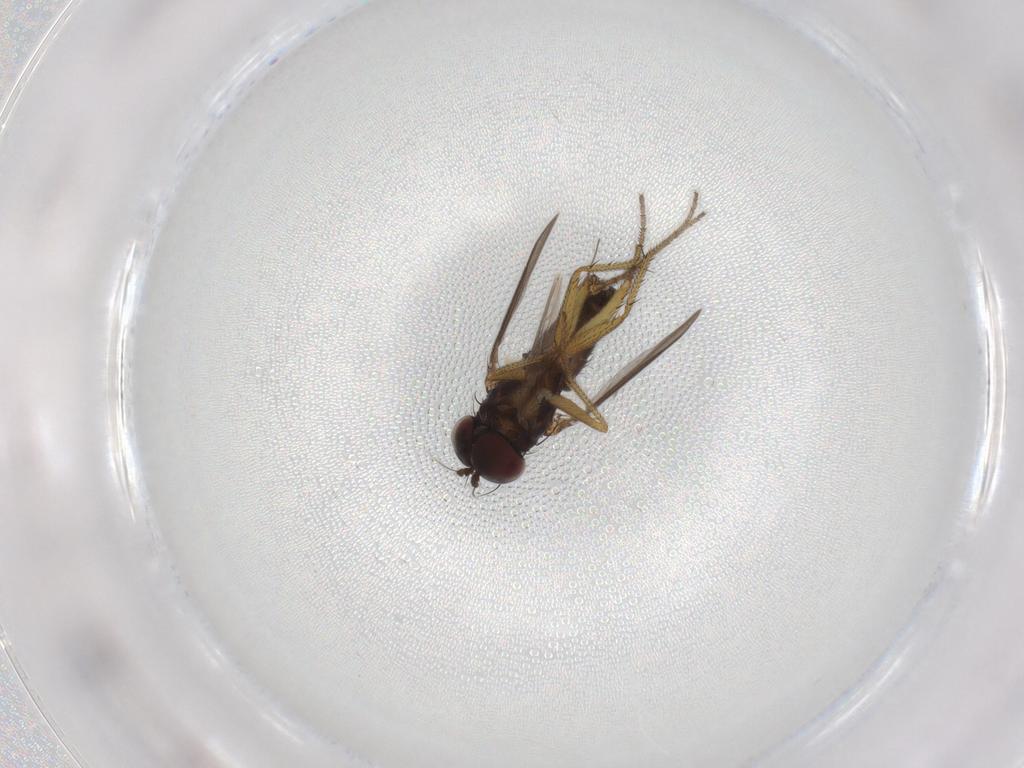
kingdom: Animalia
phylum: Arthropoda
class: Insecta
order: Diptera
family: Chironomidae
